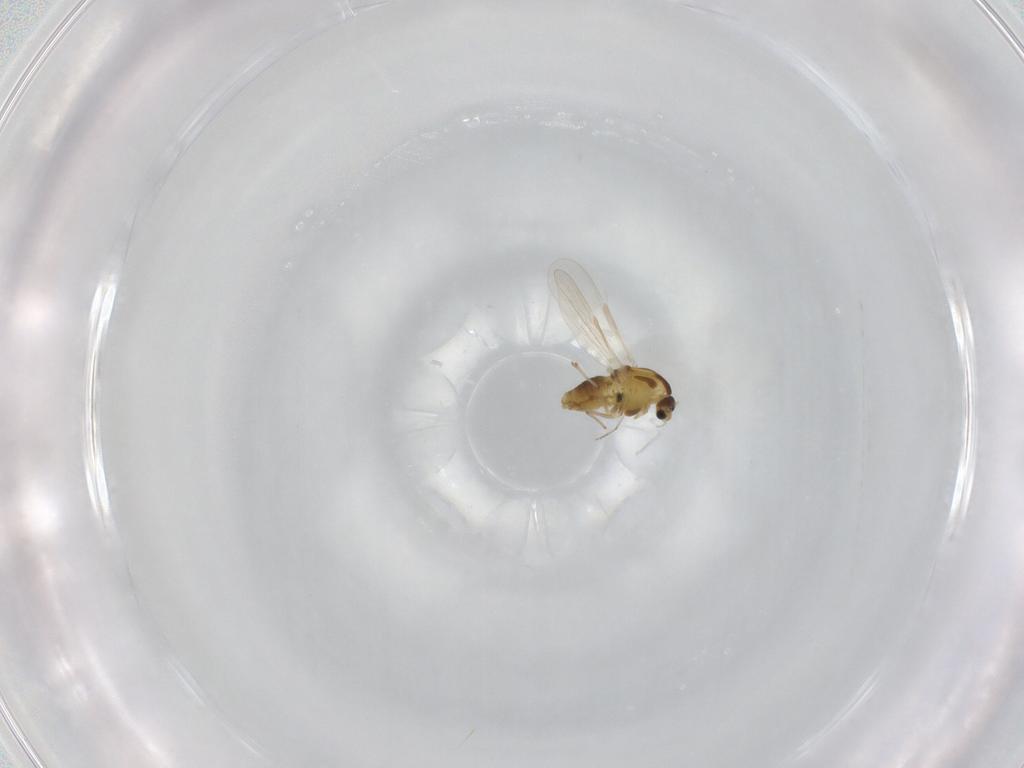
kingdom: Animalia
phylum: Arthropoda
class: Insecta
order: Diptera
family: Chironomidae
